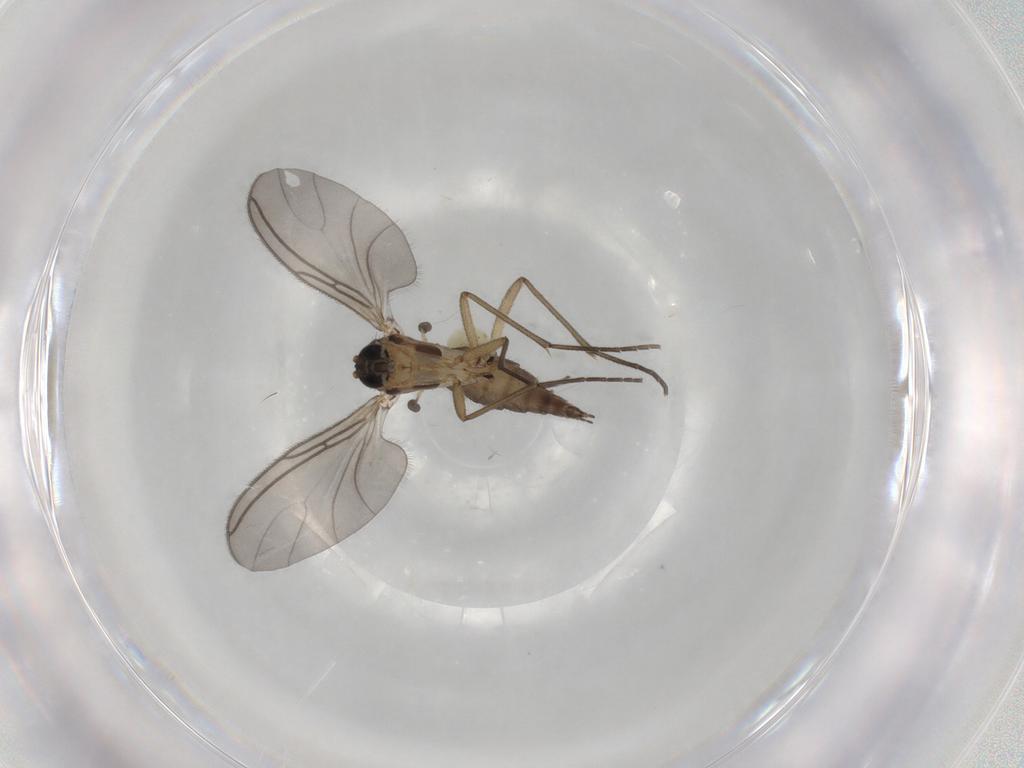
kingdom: Animalia
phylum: Arthropoda
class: Insecta
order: Diptera
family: Sciaridae
